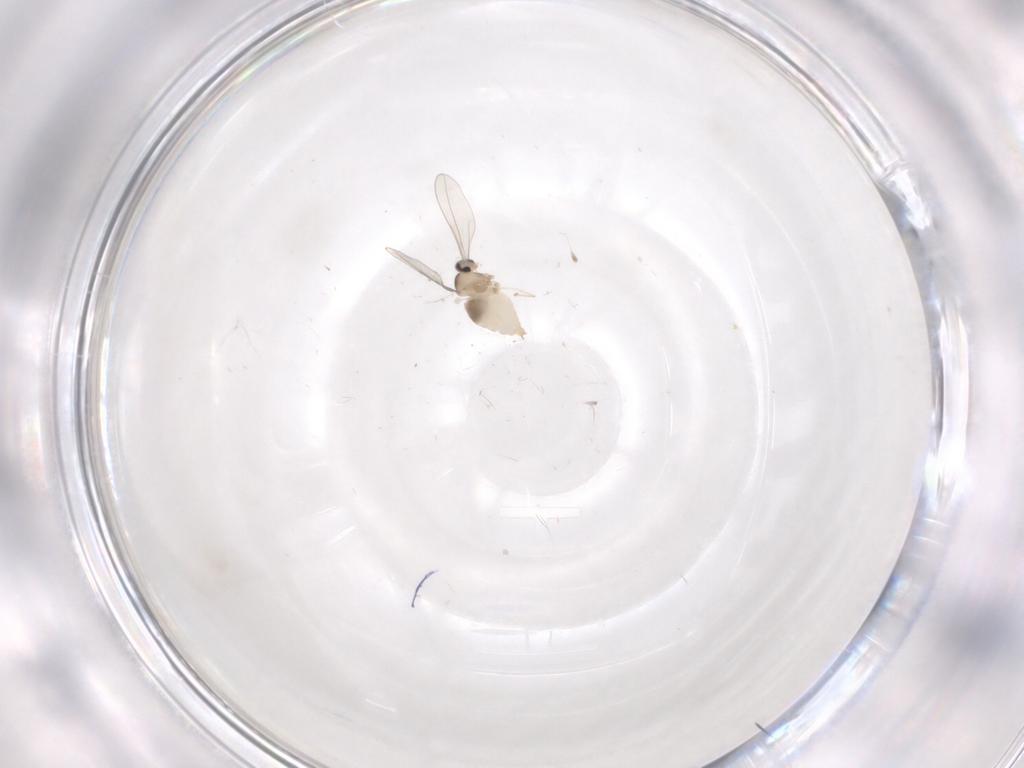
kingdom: Animalia
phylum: Arthropoda
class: Insecta
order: Diptera
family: Cecidomyiidae
